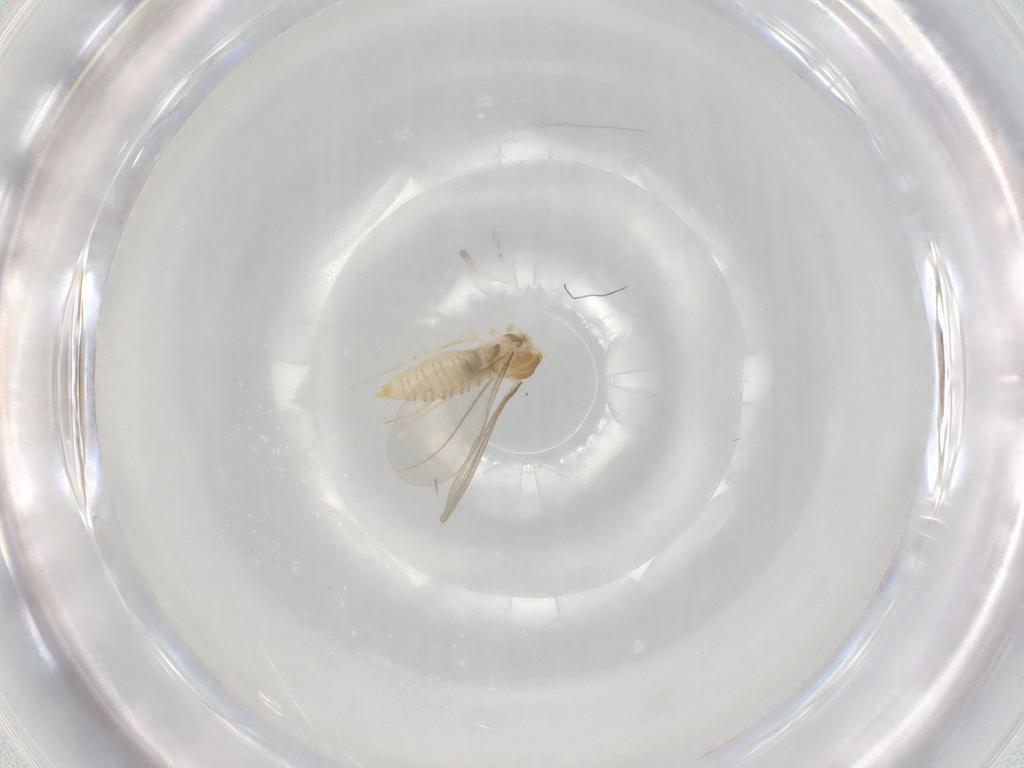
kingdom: Animalia
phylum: Arthropoda
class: Insecta
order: Diptera
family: Cecidomyiidae
